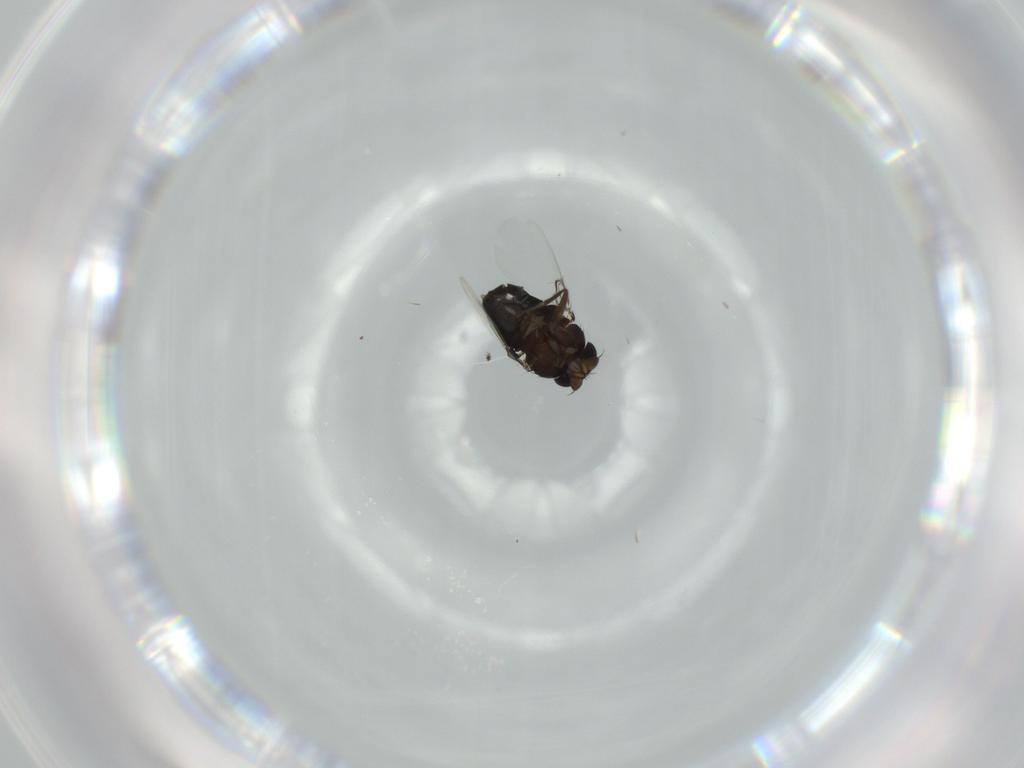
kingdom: Animalia
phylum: Arthropoda
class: Insecta
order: Diptera
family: Phoridae
